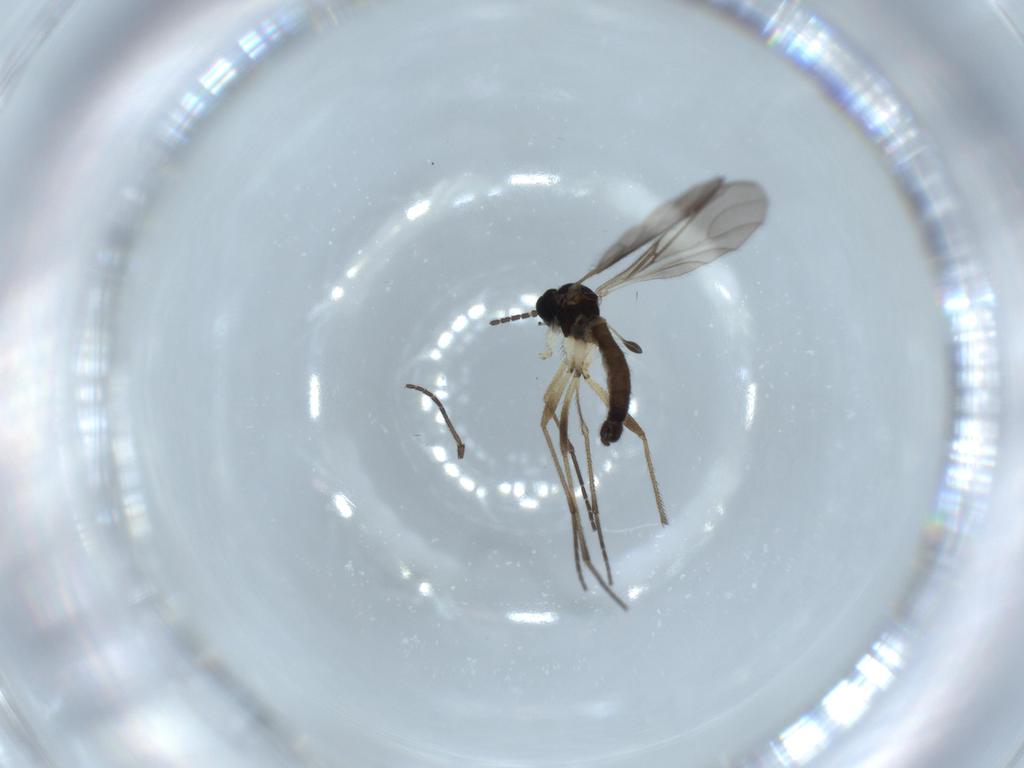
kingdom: Animalia
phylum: Arthropoda
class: Insecta
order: Diptera
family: Sciaridae
